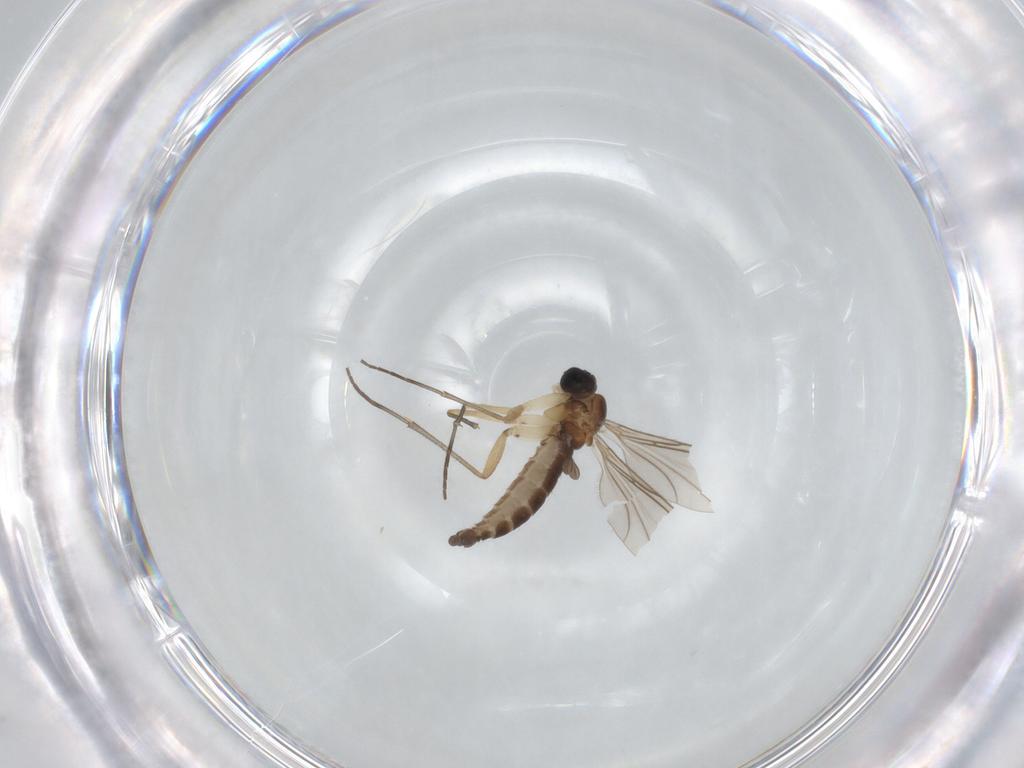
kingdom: Animalia
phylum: Arthropoda
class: Insecta
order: Diptera
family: Sciaridae
